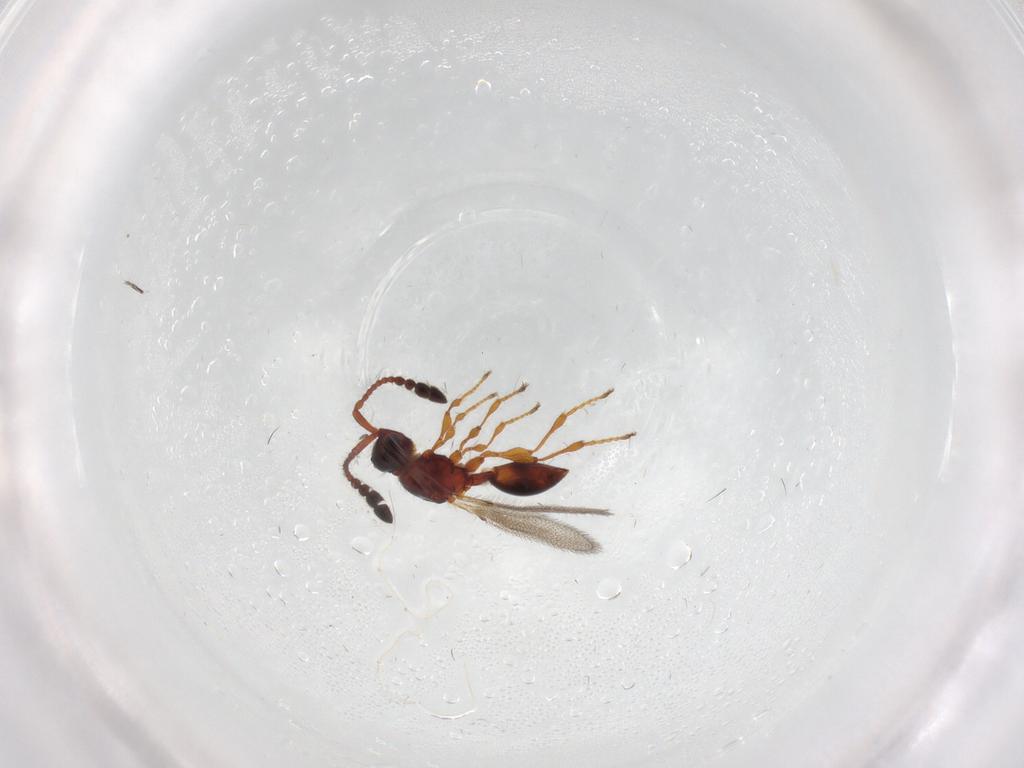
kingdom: Animalia
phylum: Arthropoda
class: Insecta
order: Hymenoptera
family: Diapriidae
